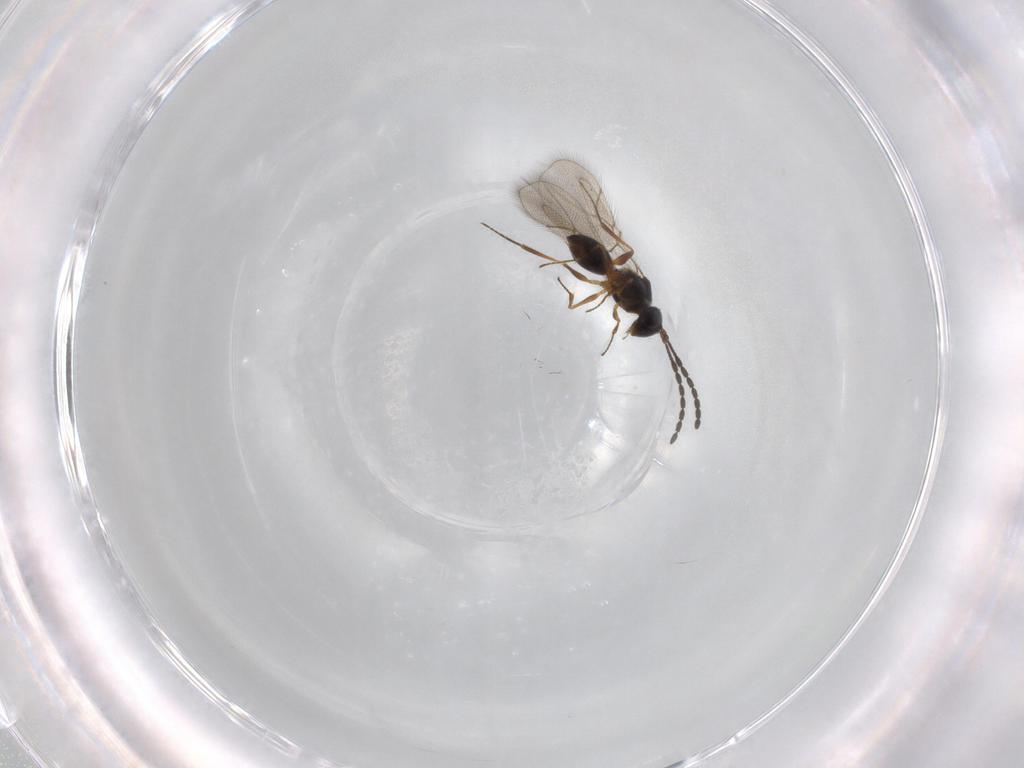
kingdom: Animalia
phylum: Arthropoda
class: Insecta
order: Hymenoptera
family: Figitidae
